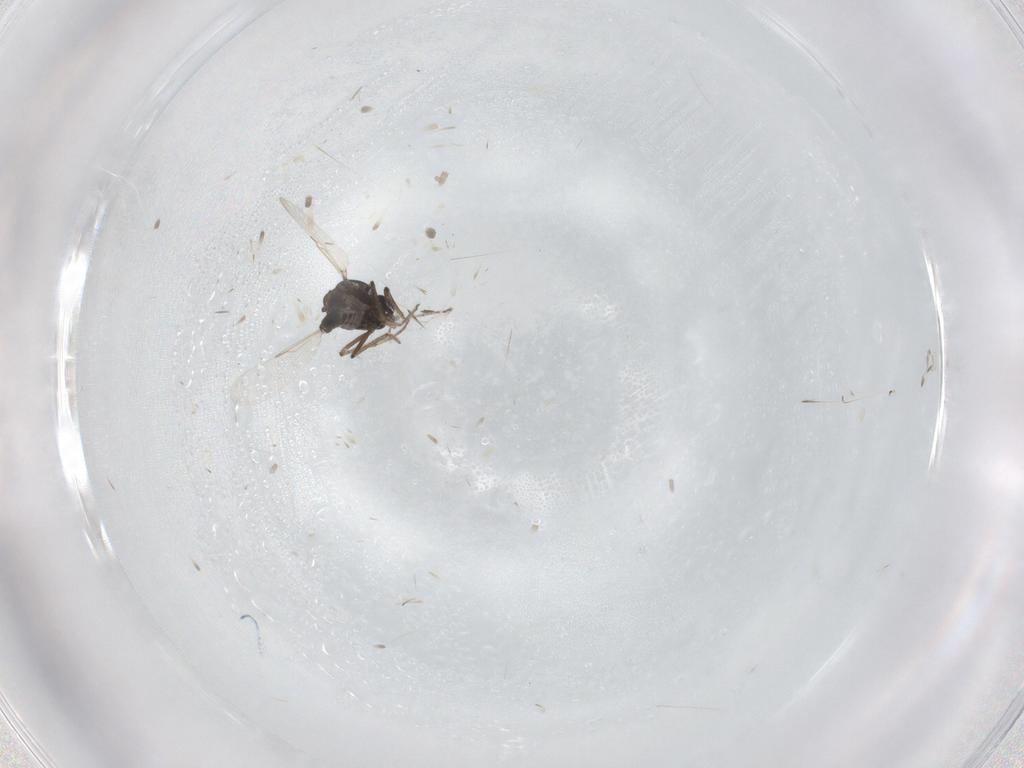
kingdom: Animalia
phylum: Arthropoda
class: Insecta
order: Diptera
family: Ceratopogonidae
